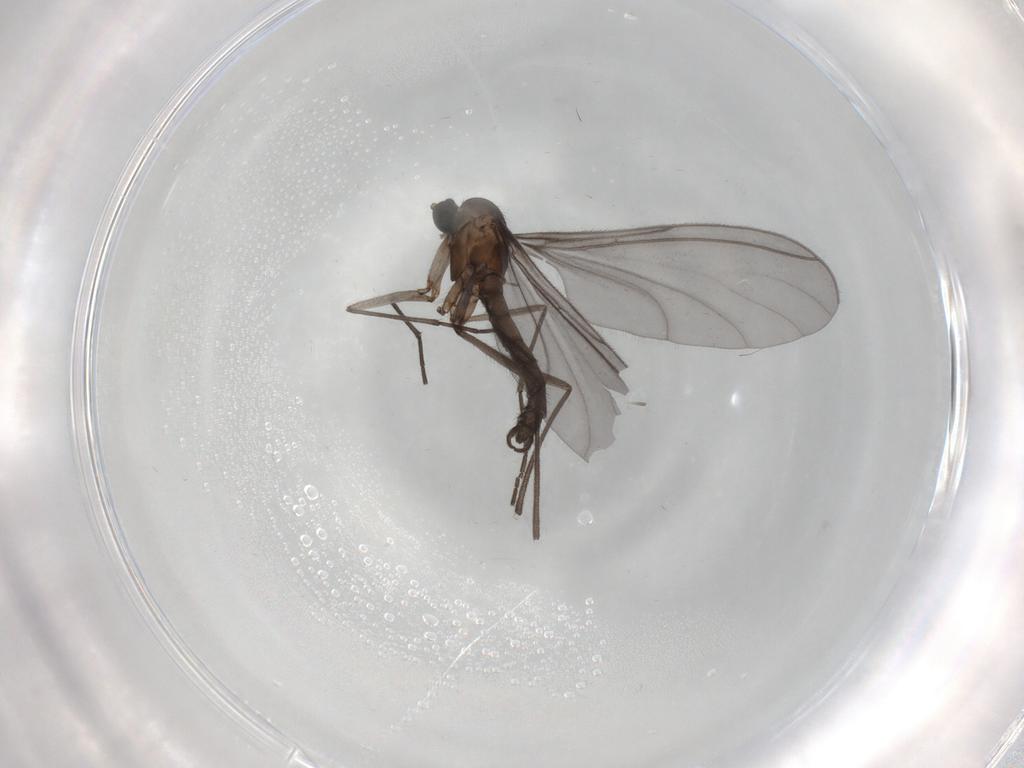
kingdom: Animalia
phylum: Arthropoda
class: Insecta
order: Diptera
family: Sciaridae
